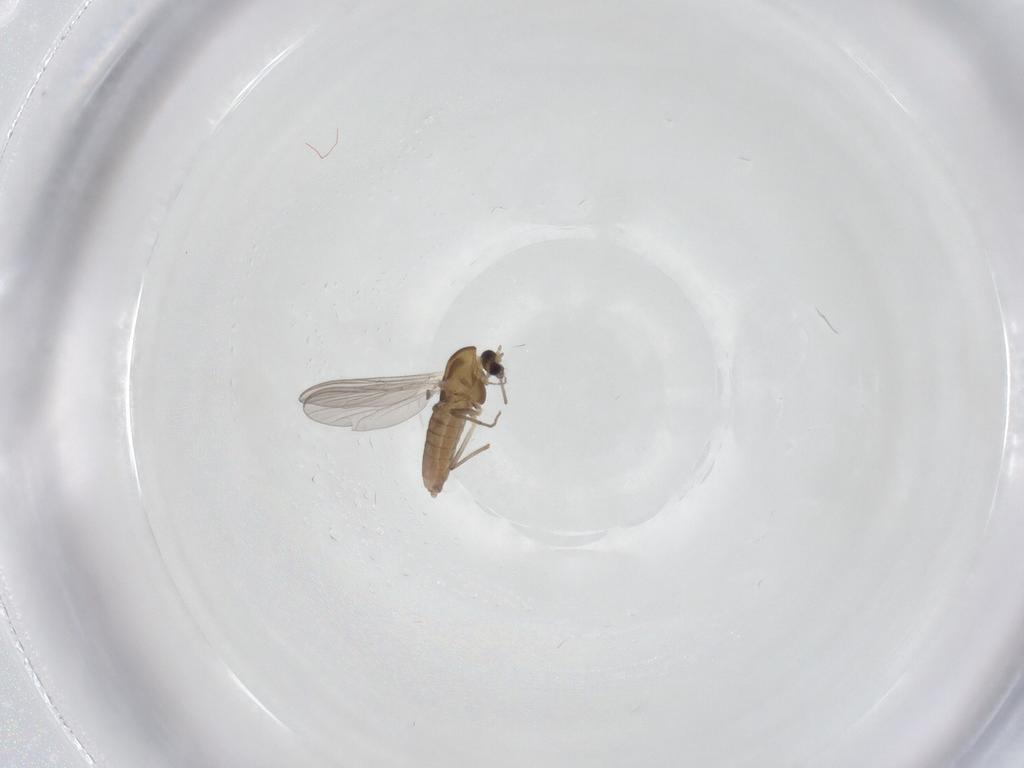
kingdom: Animalia
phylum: Arthropoda
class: Insecta
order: Diptera
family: Chironomidae
